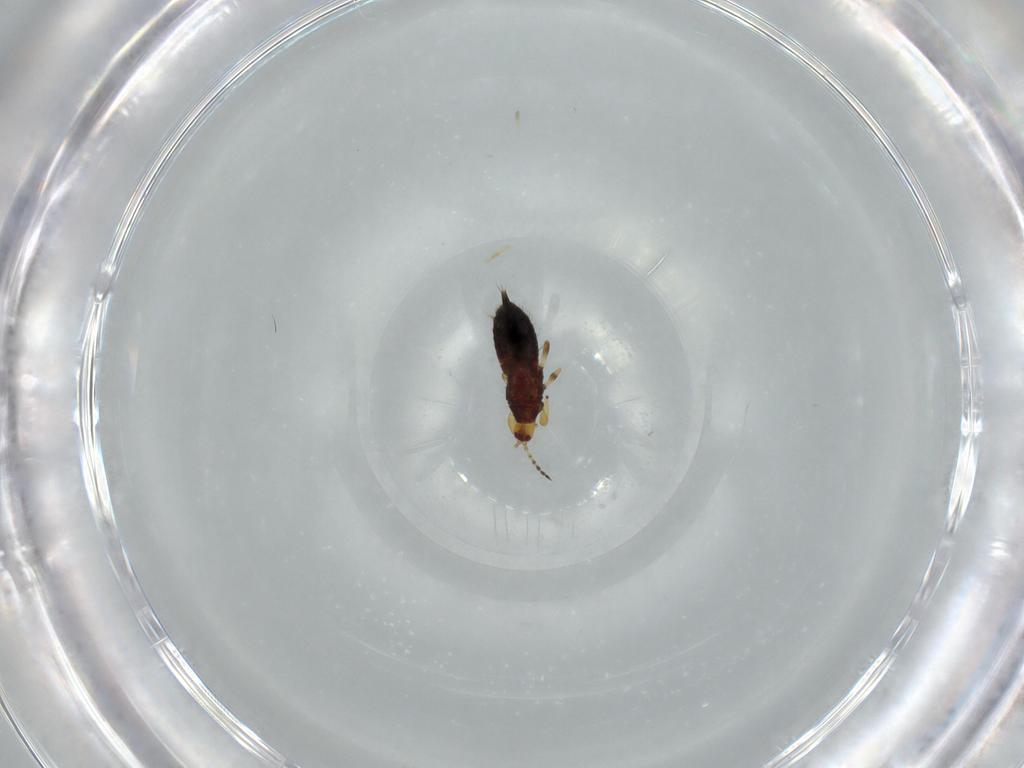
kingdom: Animalia
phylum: Arthropoda
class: Insecta
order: Thysanoptera
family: Phlaeothripidae
